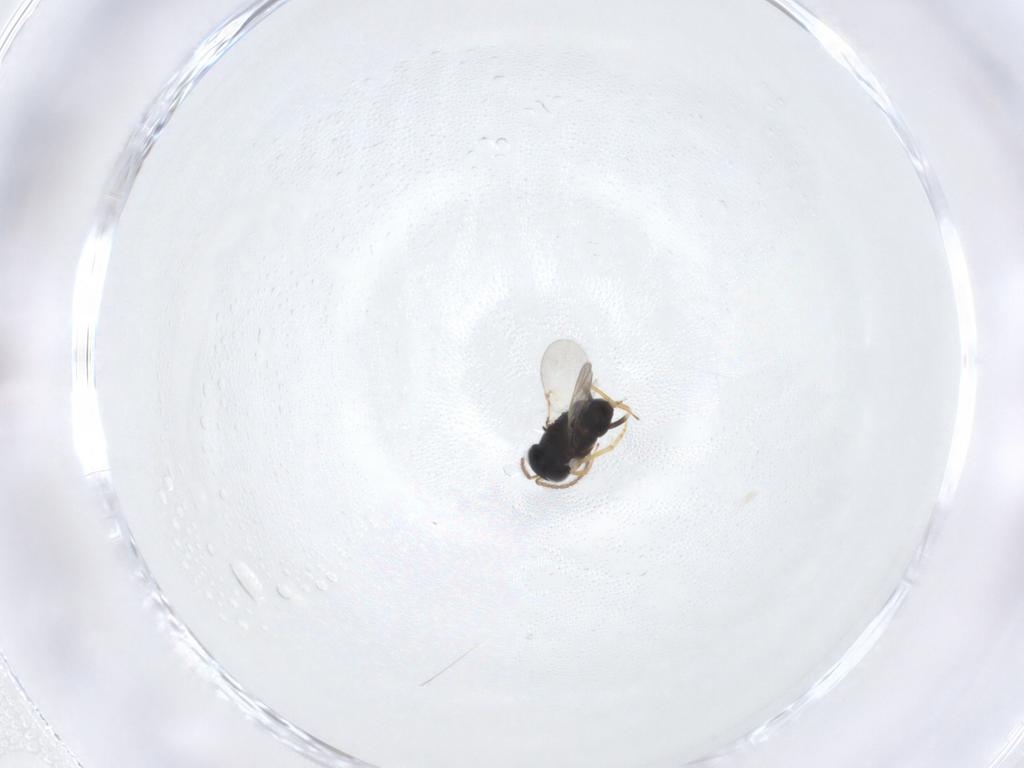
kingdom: Animalia
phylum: Arthropoda
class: Insecta
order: Hymenoptera
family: Encyrtidae
